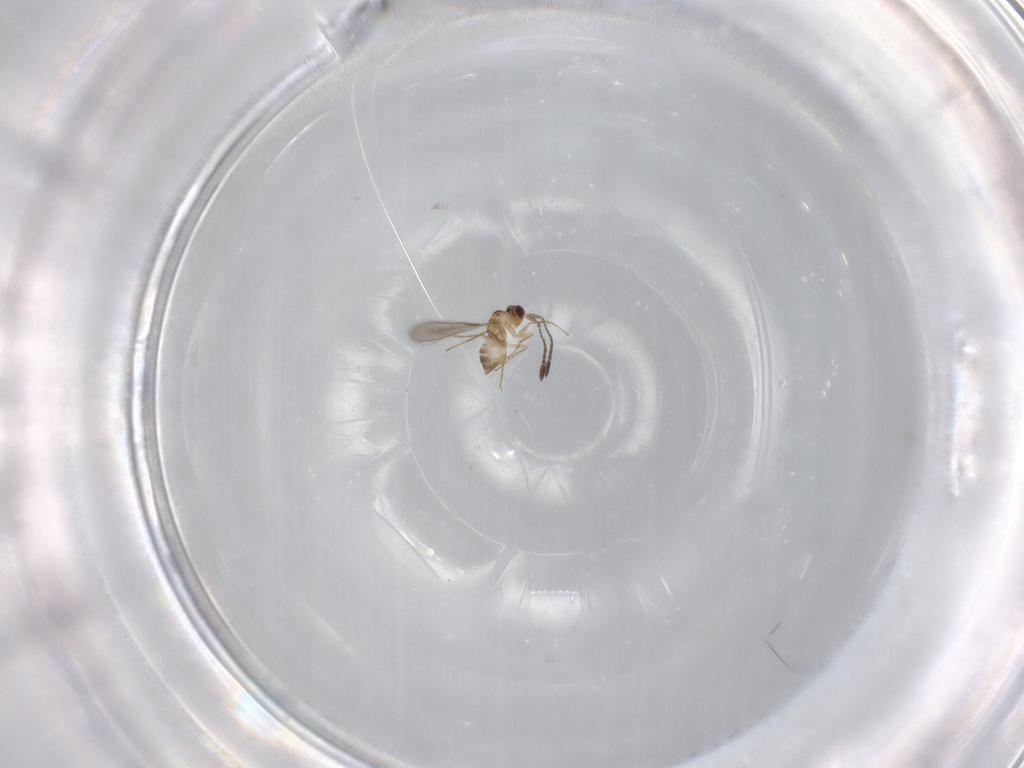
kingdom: Animalia
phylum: Arthropoda
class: Insecta
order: Hymenoptera
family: Mymaridae
